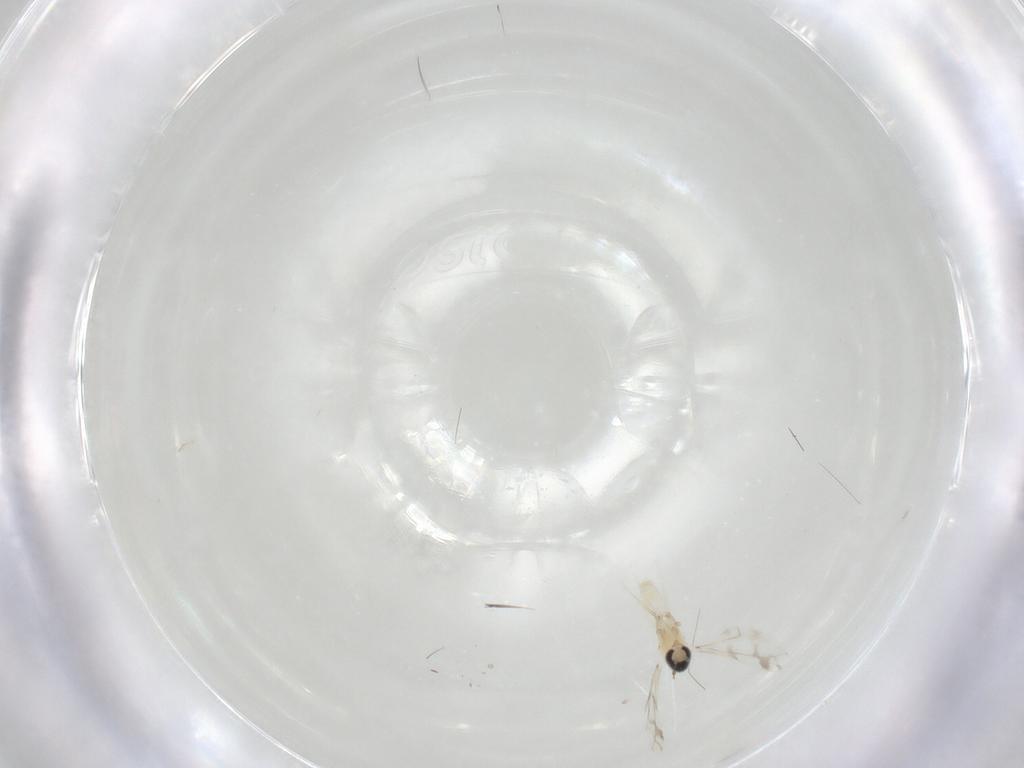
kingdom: Animalia
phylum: Arthropoda
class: Insecta
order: Diptera
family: Cecidomyiidae
